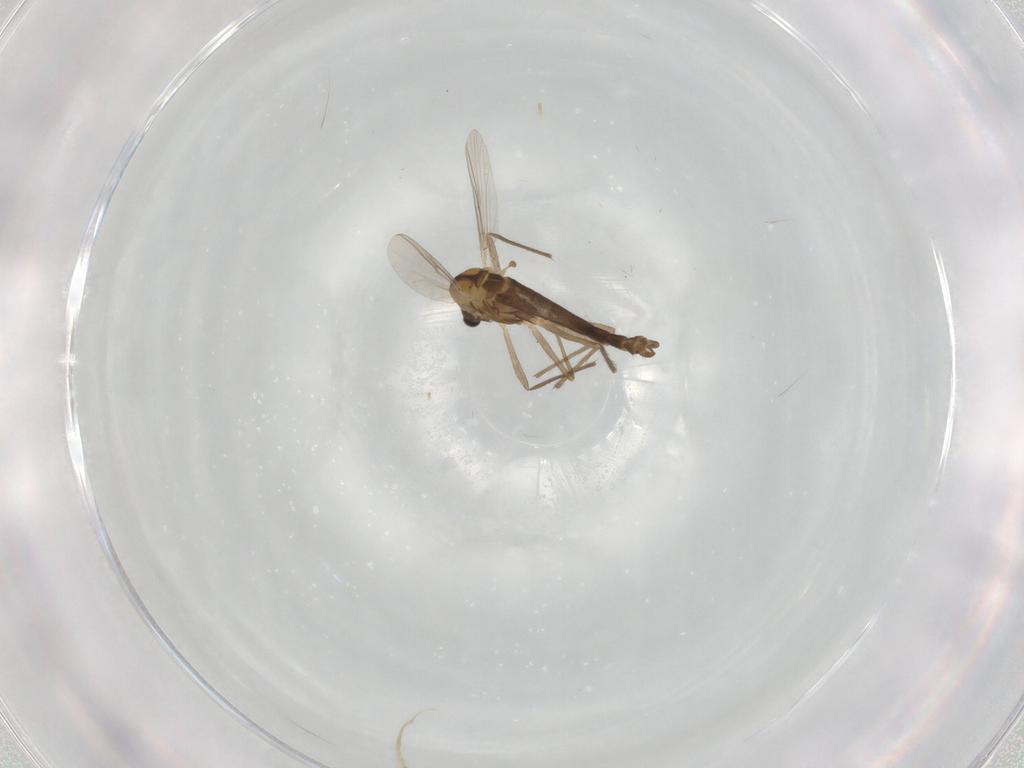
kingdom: Animalia
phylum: Arthropoda
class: Insecta
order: Diptera
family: Chironomidae
